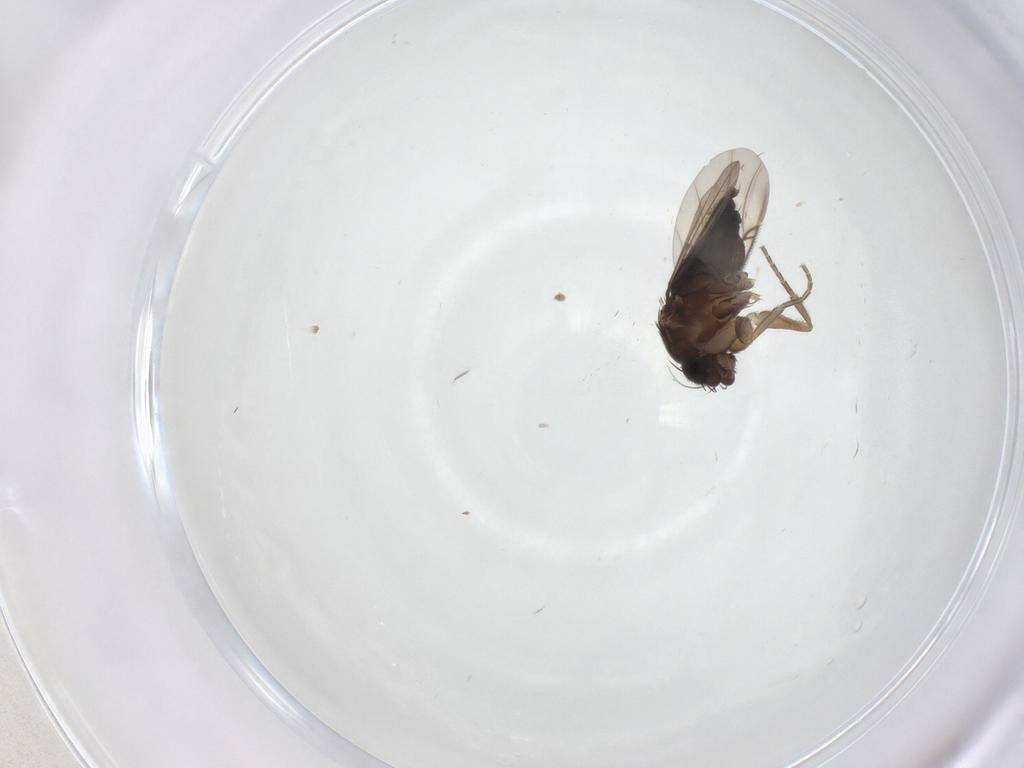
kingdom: Animalia
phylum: Arthropoda
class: Insecta
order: Diptera
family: Phoridae
